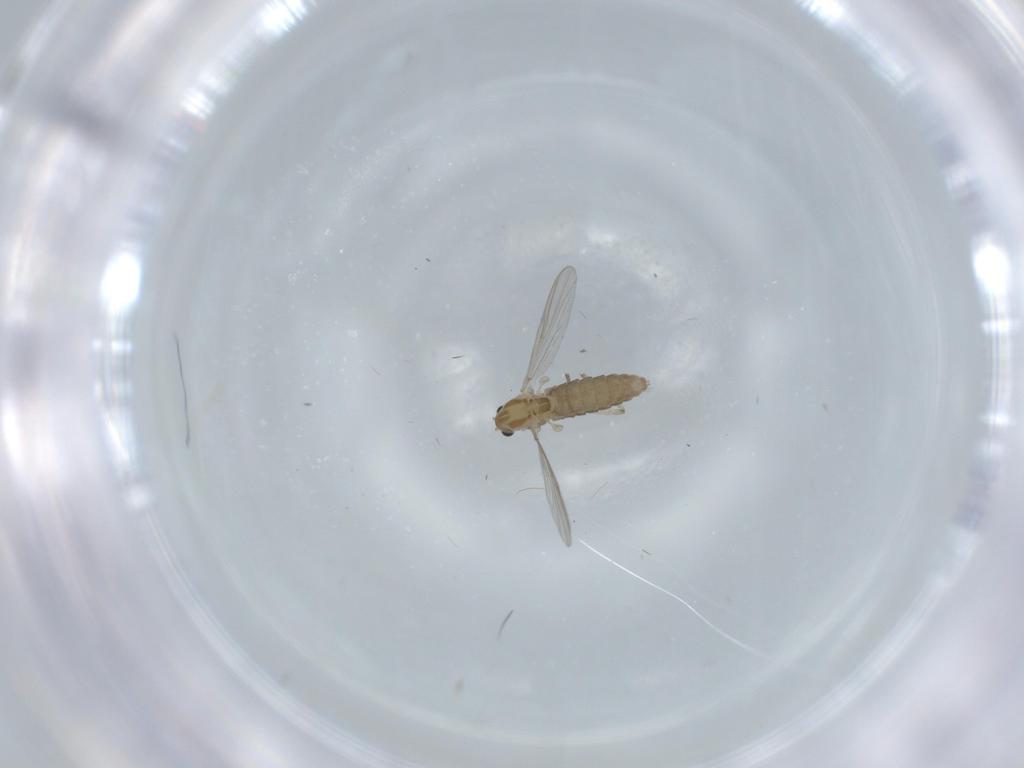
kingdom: Animalia
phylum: Arthropoda
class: Insecta
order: Diptera
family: Chironomidae
